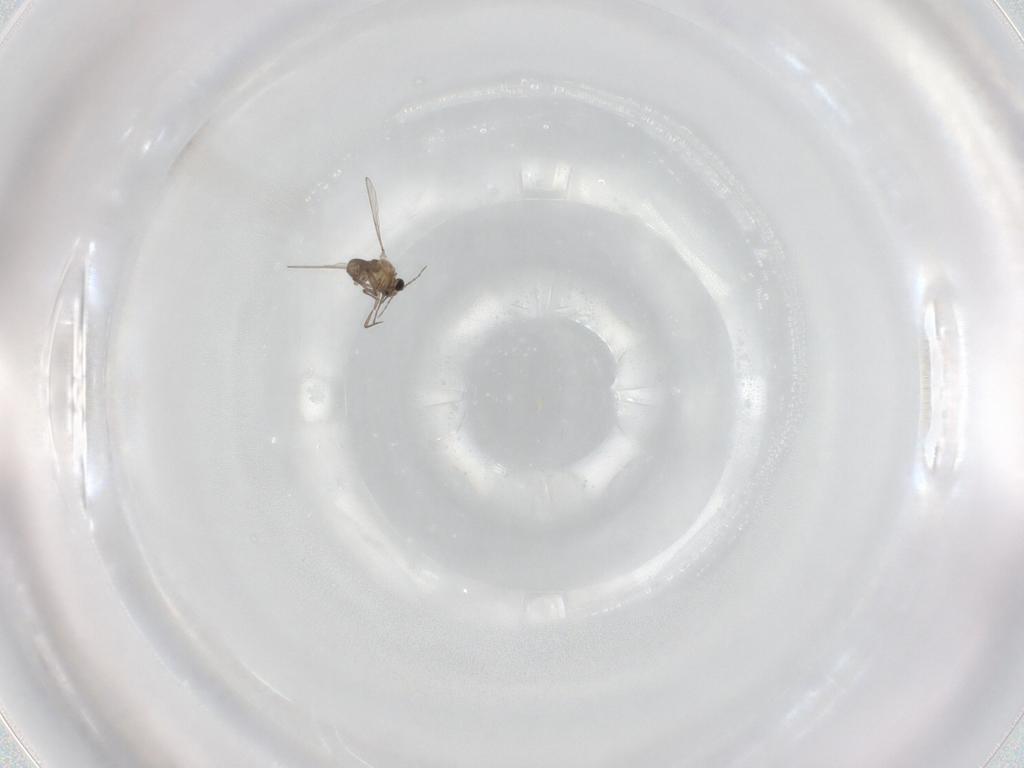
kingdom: Animalia
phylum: Arthropoda
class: Insecta
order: Diptera
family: Chironomidae
